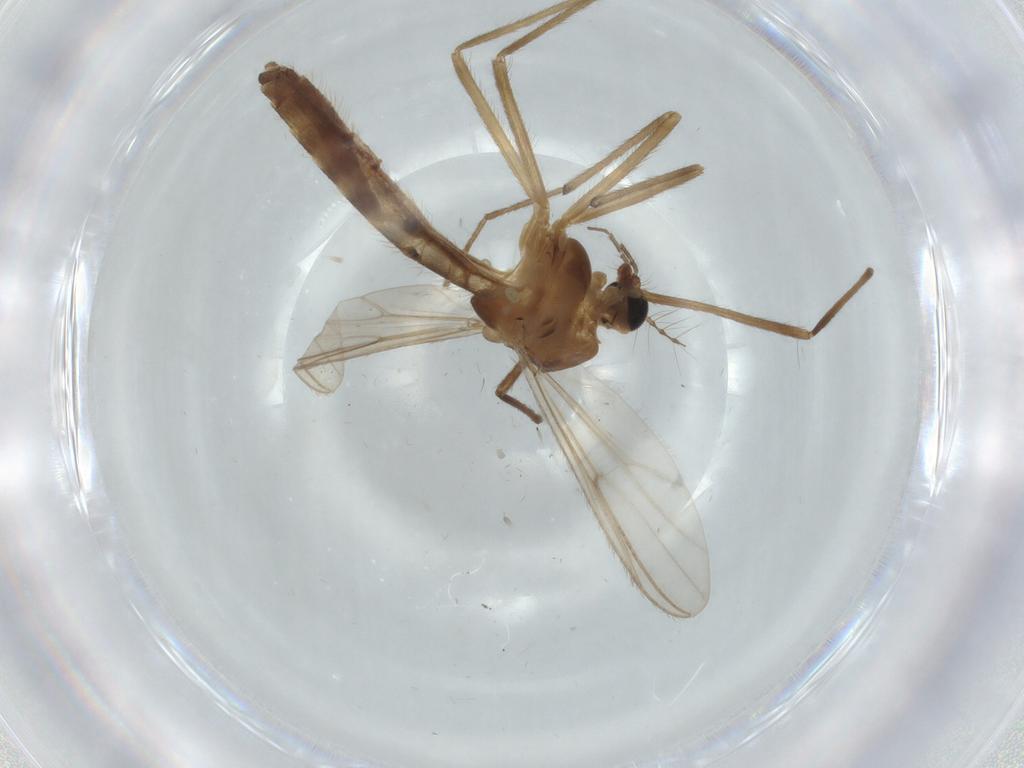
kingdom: Animalia
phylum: Arthropoda
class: Insecta
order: Diptera
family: Chironomidae
